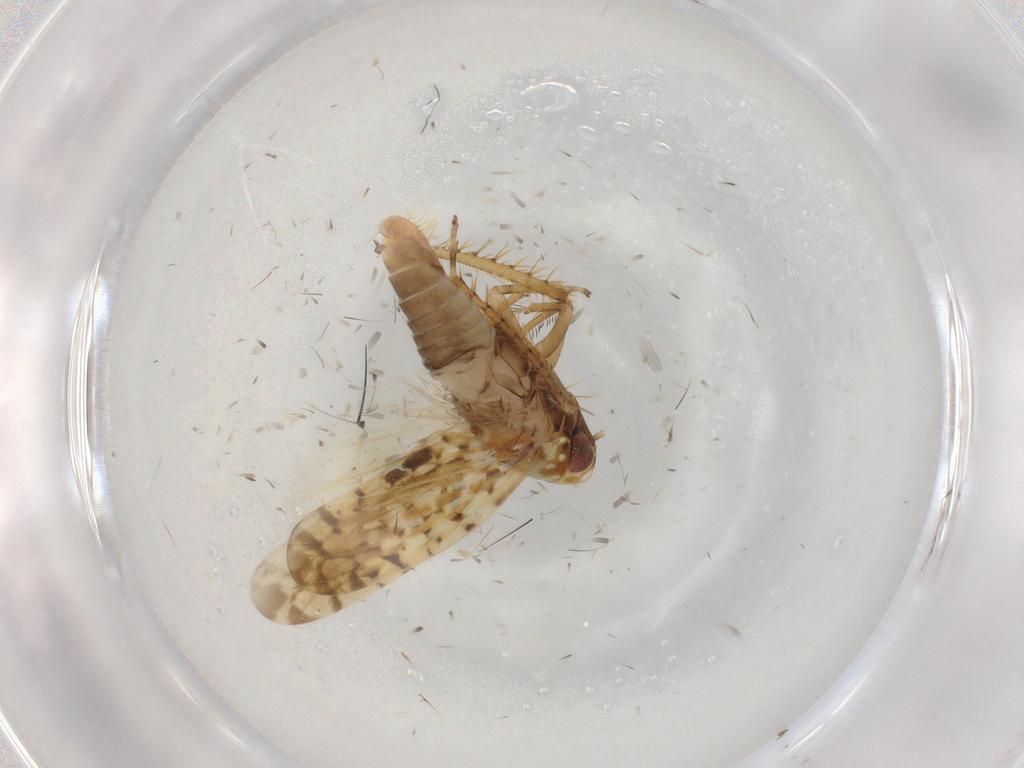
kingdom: Animalia
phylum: Arthropoda
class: Insecta
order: Hemiptera
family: Cicadellidae
